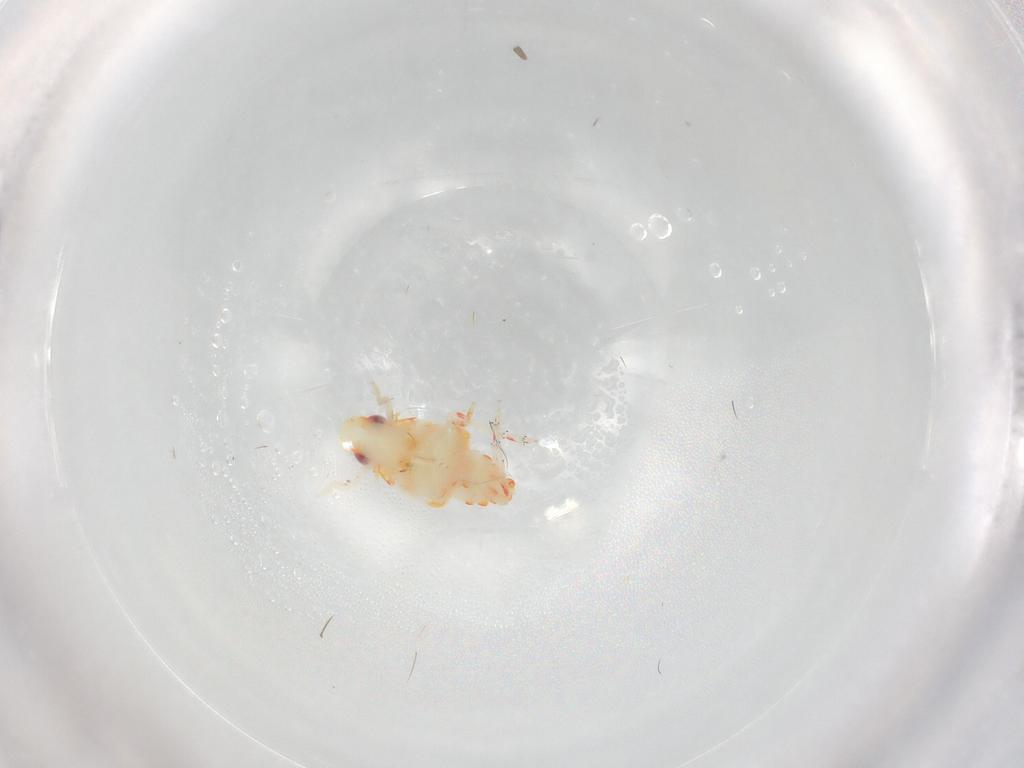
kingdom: Animalia
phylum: Arthropoda
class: Insecta
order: Hemiptera
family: Tropiduchidae
